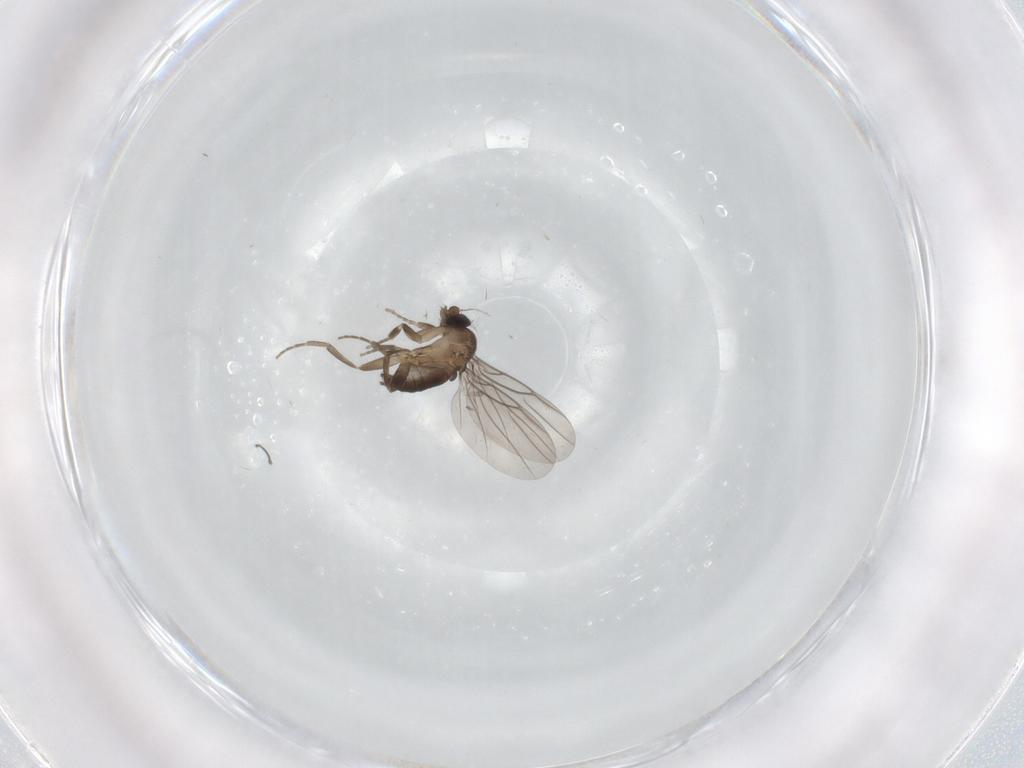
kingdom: Animalia
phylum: Arthropoda
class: Insecta
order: Diptera
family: Phoridae
